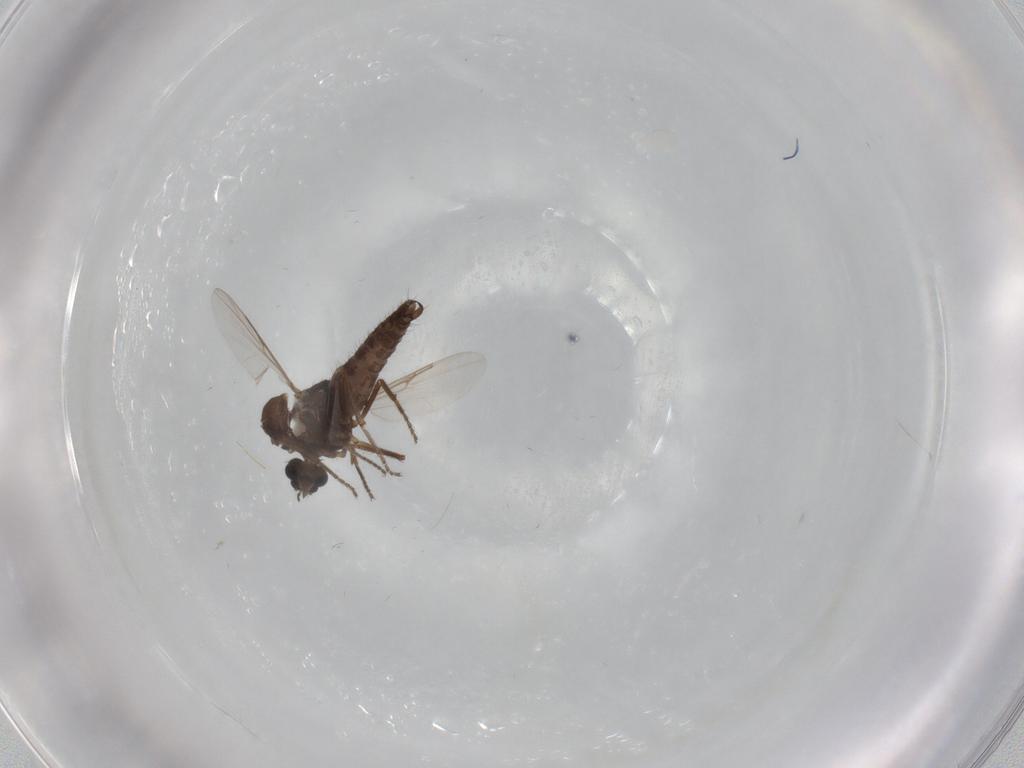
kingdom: Animalia
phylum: Arthropoda
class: Insecta
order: Diptera
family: Ceratopogonidae
